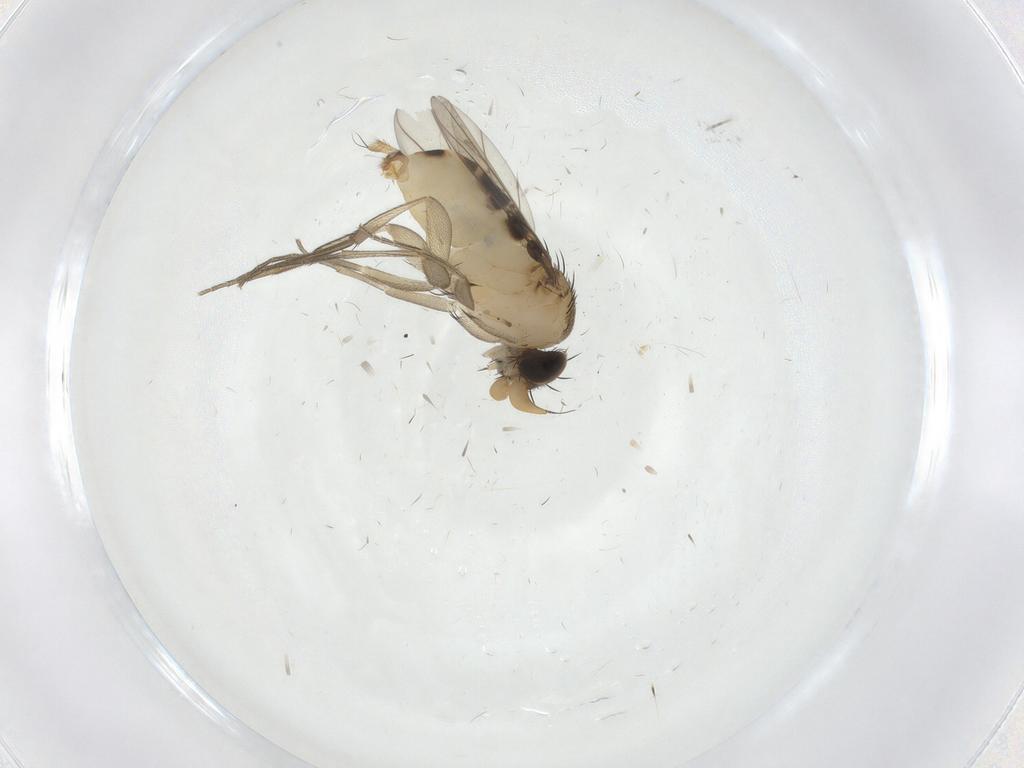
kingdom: Animalia
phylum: Arthropoda
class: Insecta
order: Diptera
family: Phoridae
